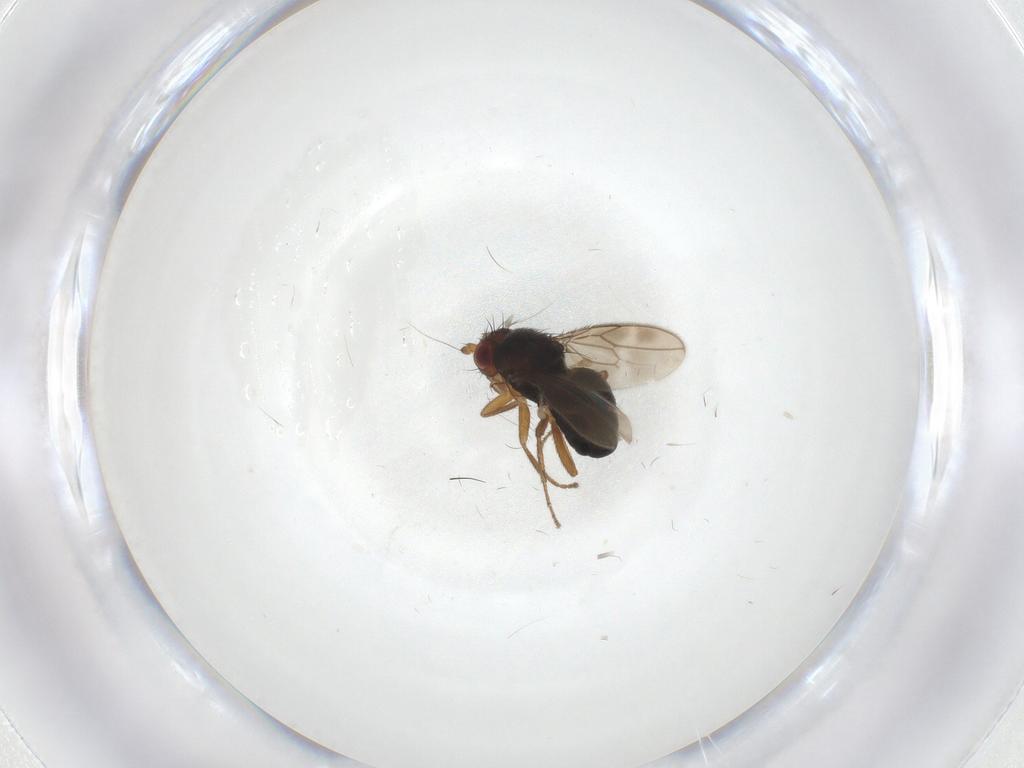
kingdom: Animalia
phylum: Arthropoda
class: Insecta
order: Diptera
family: Sphaeroceridae
